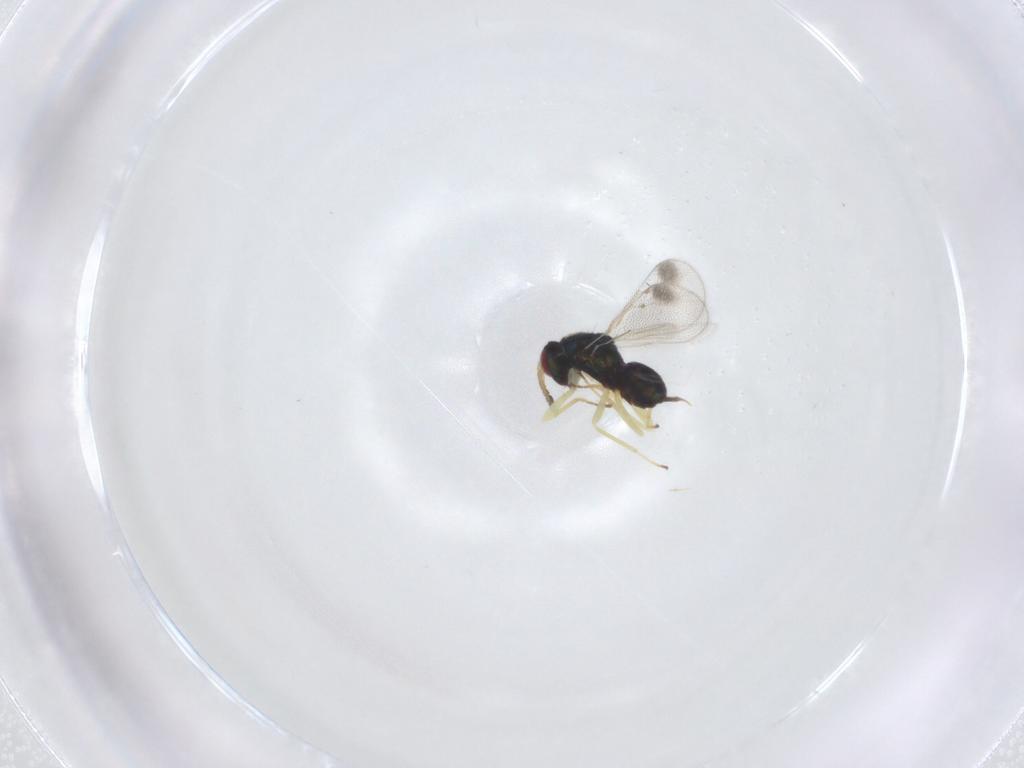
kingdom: Animalia
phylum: Arthropoda
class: Insecta
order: Hymenoptera
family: Eulophidae
